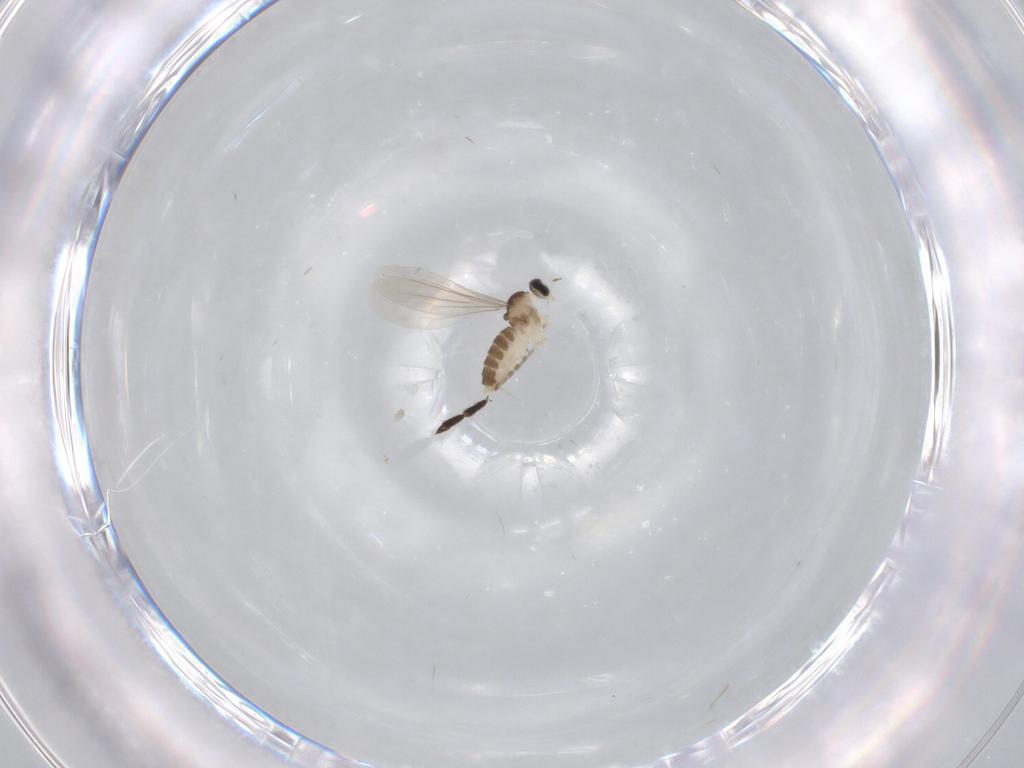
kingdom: Animalia
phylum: Arthropoda
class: Insecta
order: Diptera
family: Cecidomyiidae
